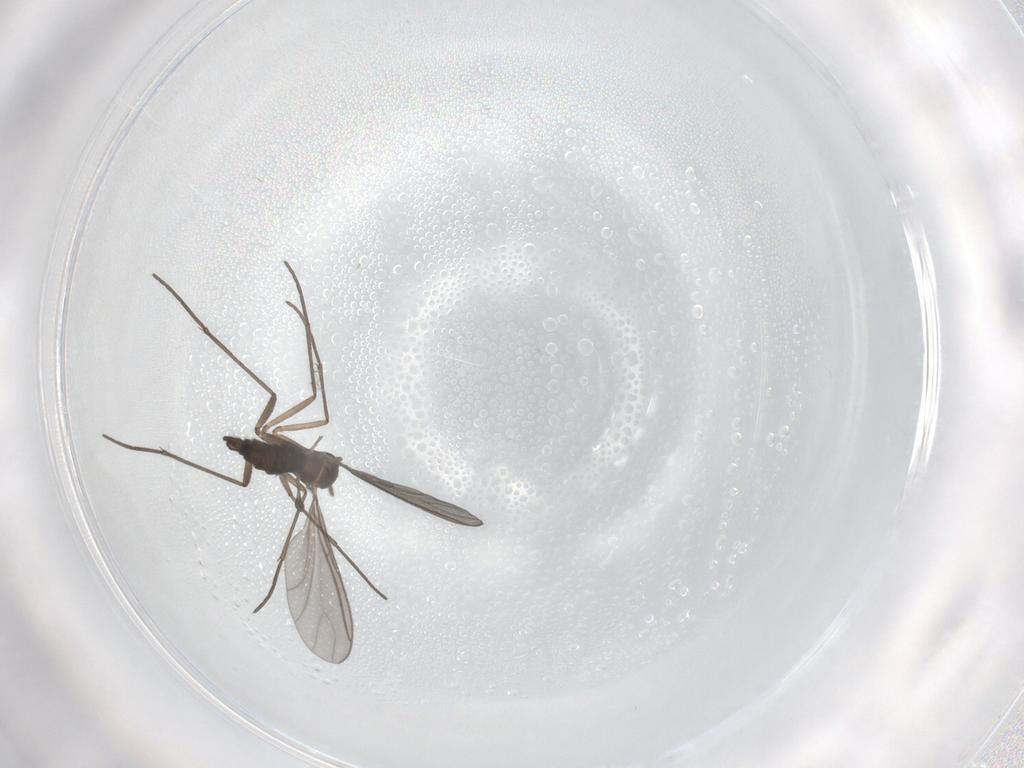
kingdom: Animalia
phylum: Arthropoda
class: Insecta
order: Diptera
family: Sciaridae
